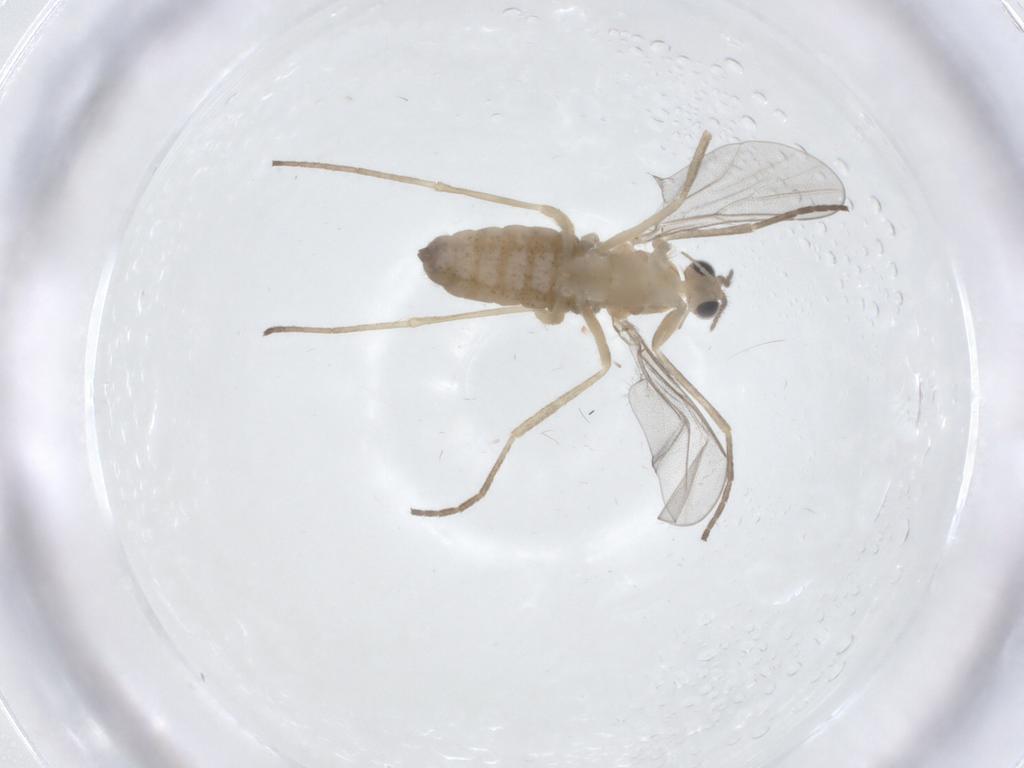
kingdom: Animalia
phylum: Arthropoda
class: Insecta
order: Diptera
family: Cecidomyiidae
